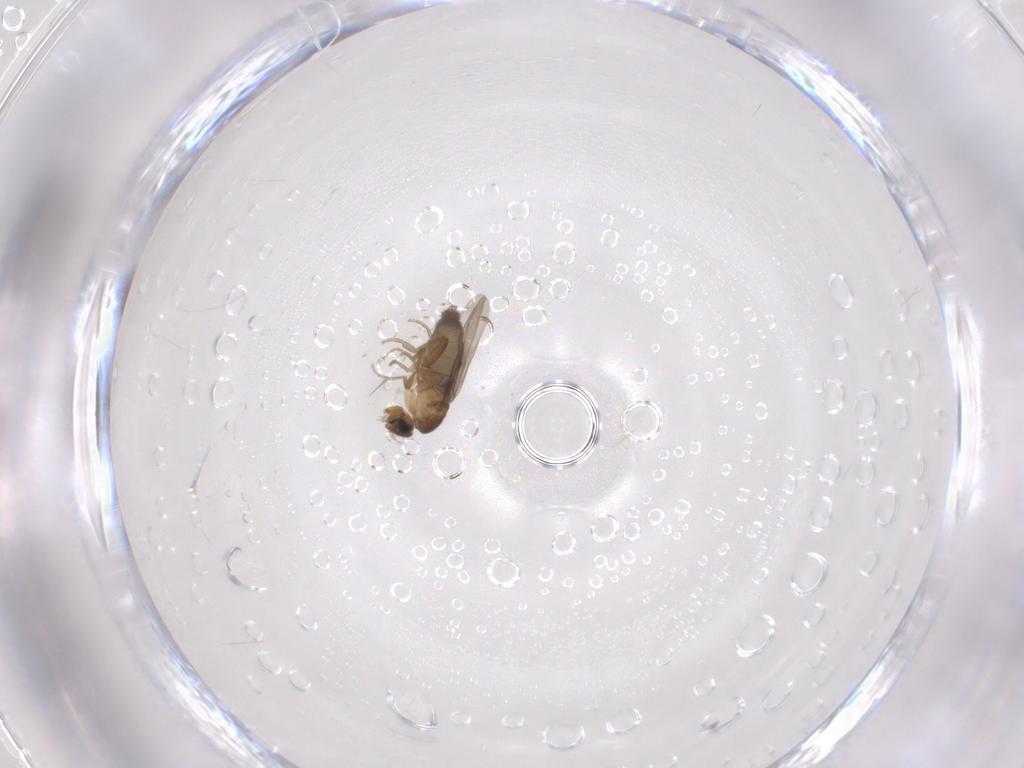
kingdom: Animalia
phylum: Arthropoda
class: Insecta
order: Diptera
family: Phoridae
